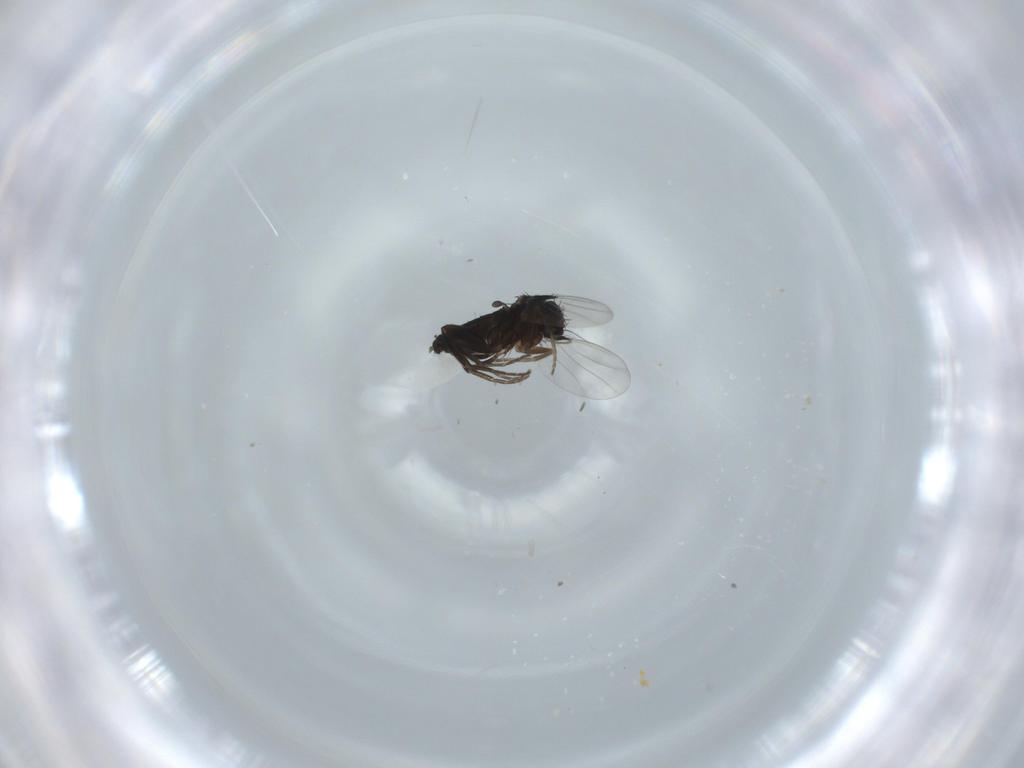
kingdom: Animalia
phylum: Arthropoda
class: Insecta
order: Diptera
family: Phoridae
